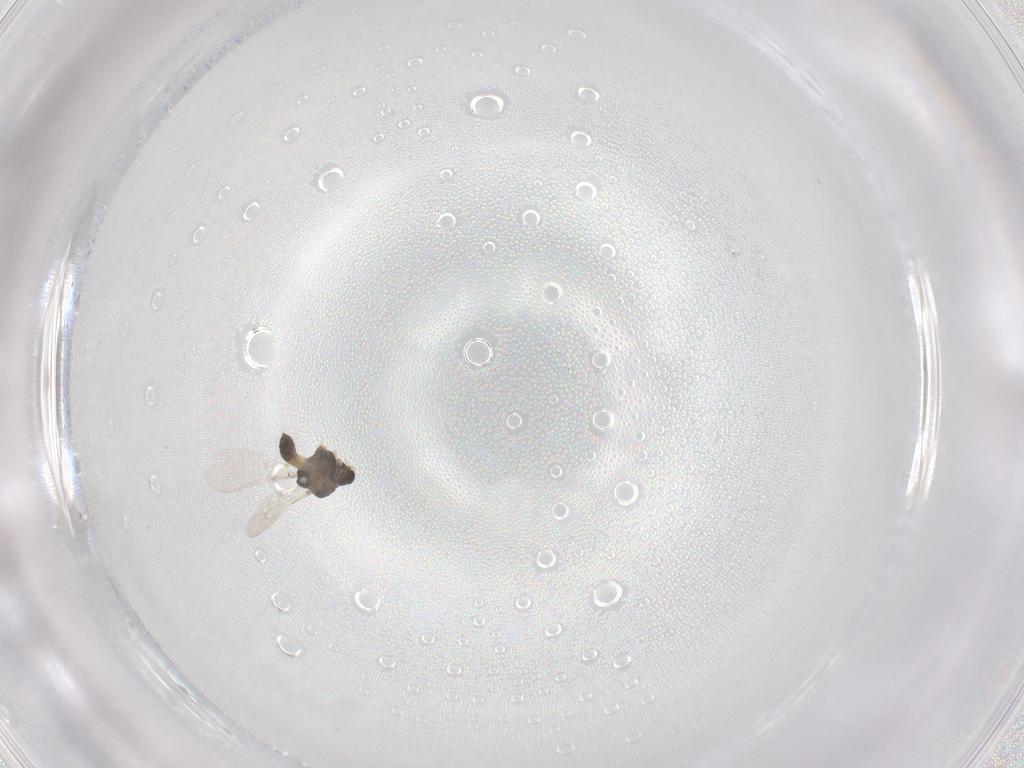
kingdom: Animalia
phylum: Arthropoda
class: Insecta
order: Diptera
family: Chironomidae
